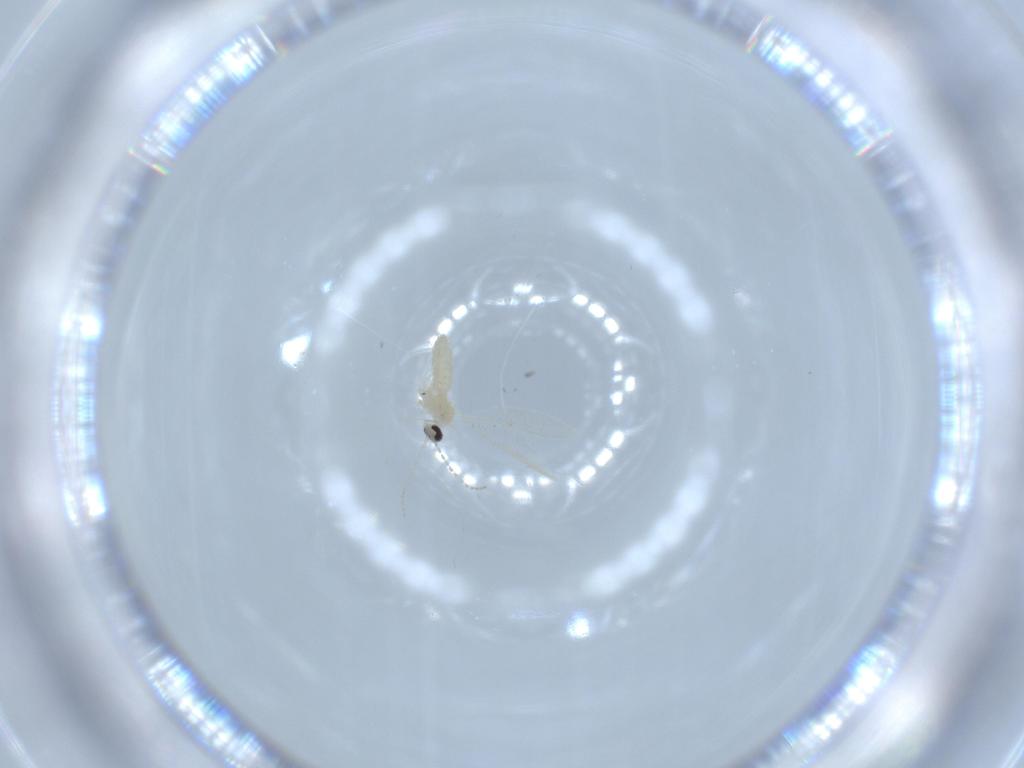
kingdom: Animalia
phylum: Arthropoda
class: Insecta
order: Diptera
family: Cecidomyiidae
